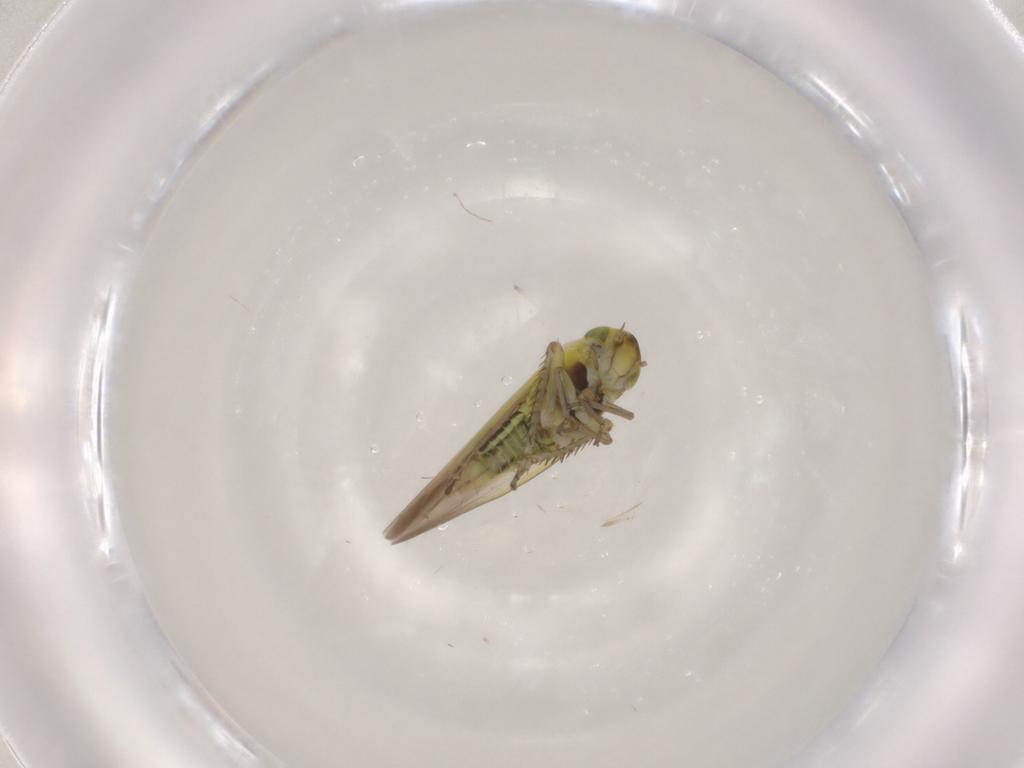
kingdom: Animalia
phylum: Arthropoda
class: Insecta
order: Hemiptera
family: Cicadellidae
